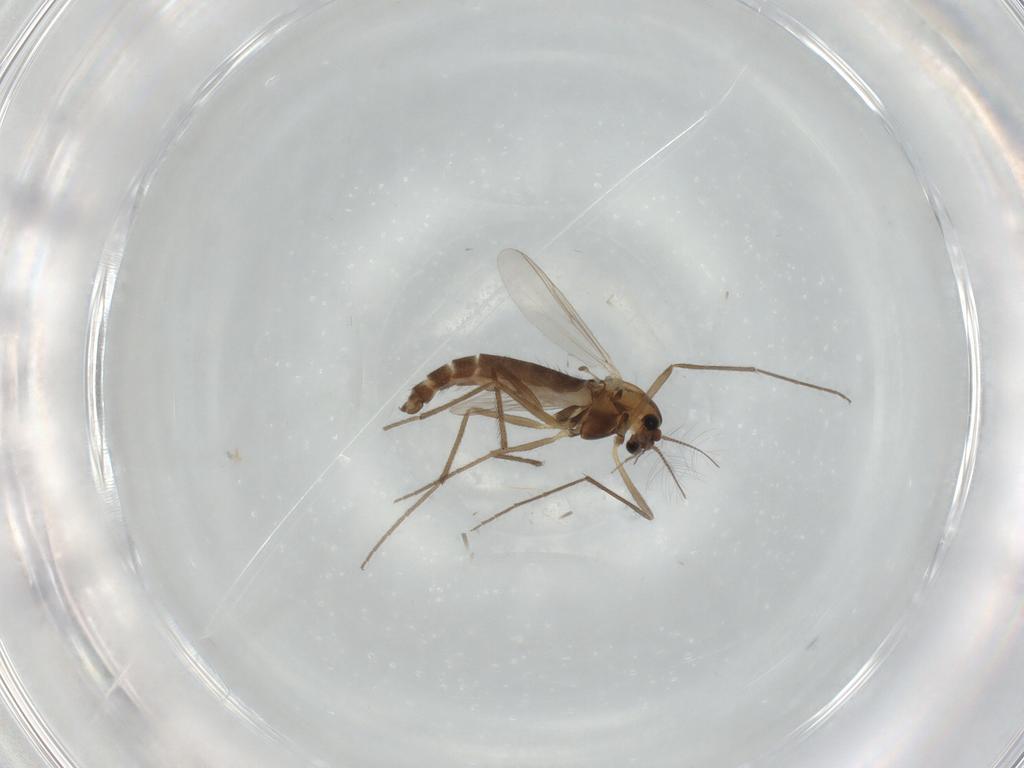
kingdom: Animalia
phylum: Arthropoda
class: Insecta
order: Diptera
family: Chironomidae
